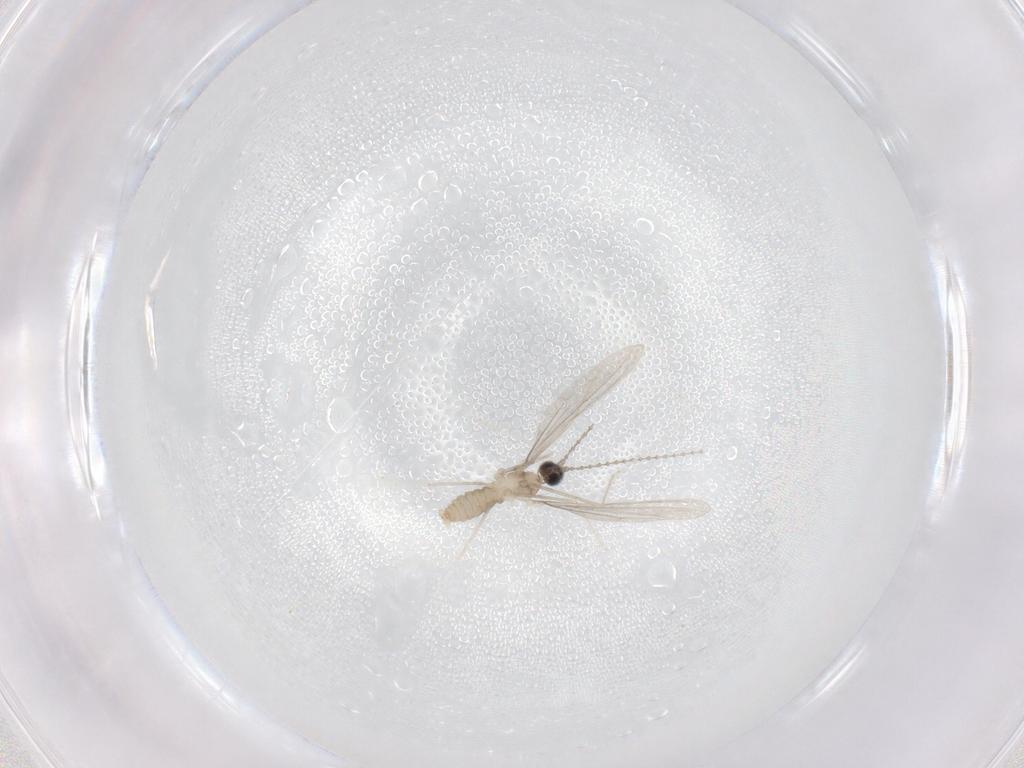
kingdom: Animalia
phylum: Arthropoda
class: Insecta
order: Diptera
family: Cecidomyiidae
